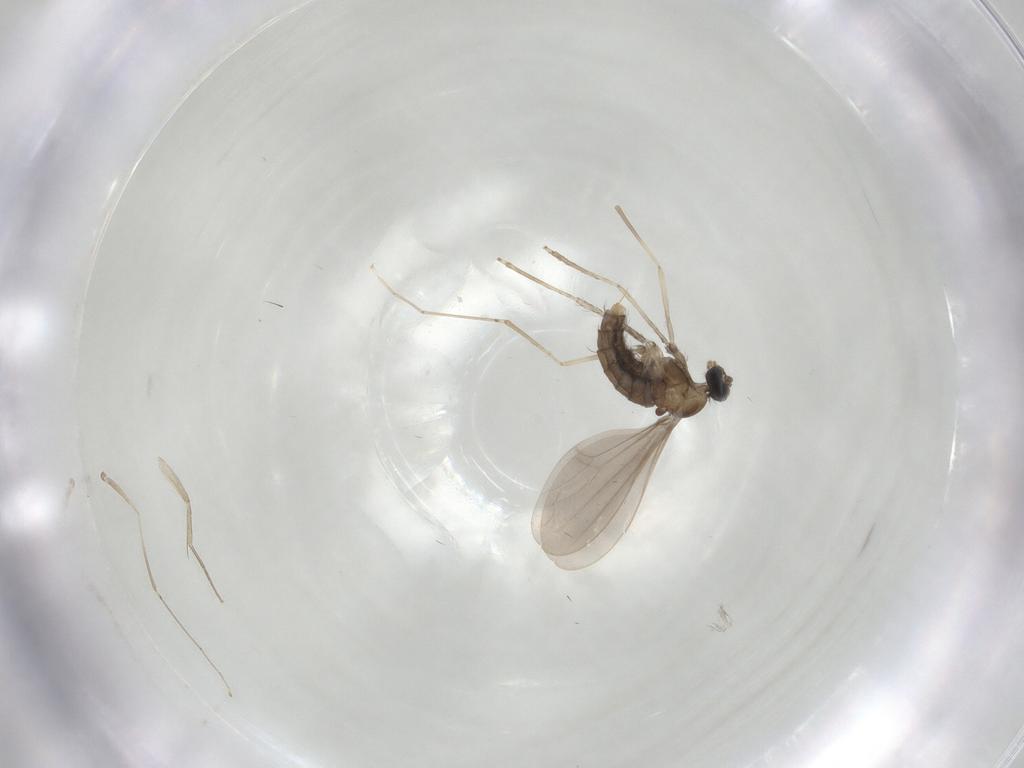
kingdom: Animalia
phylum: Arthropoda
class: Insecta
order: Diptera
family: Cecidomyiidae
